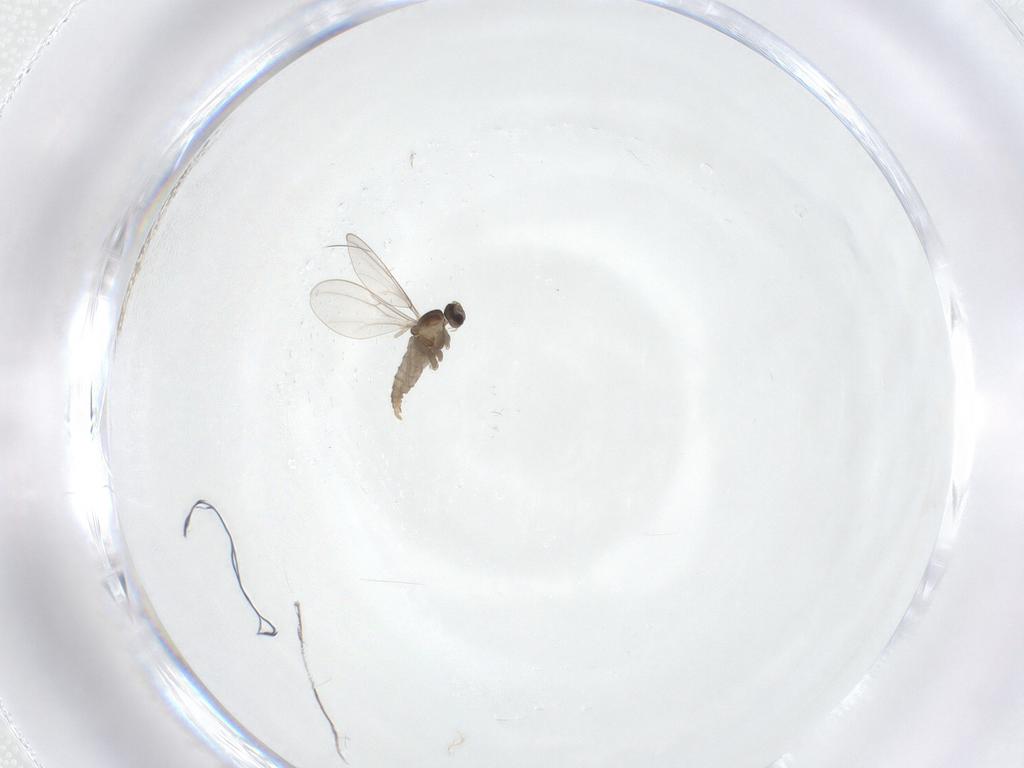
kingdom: Animalia
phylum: Arthropoda
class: Insecta
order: Diptera
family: Cecidomyiidae
